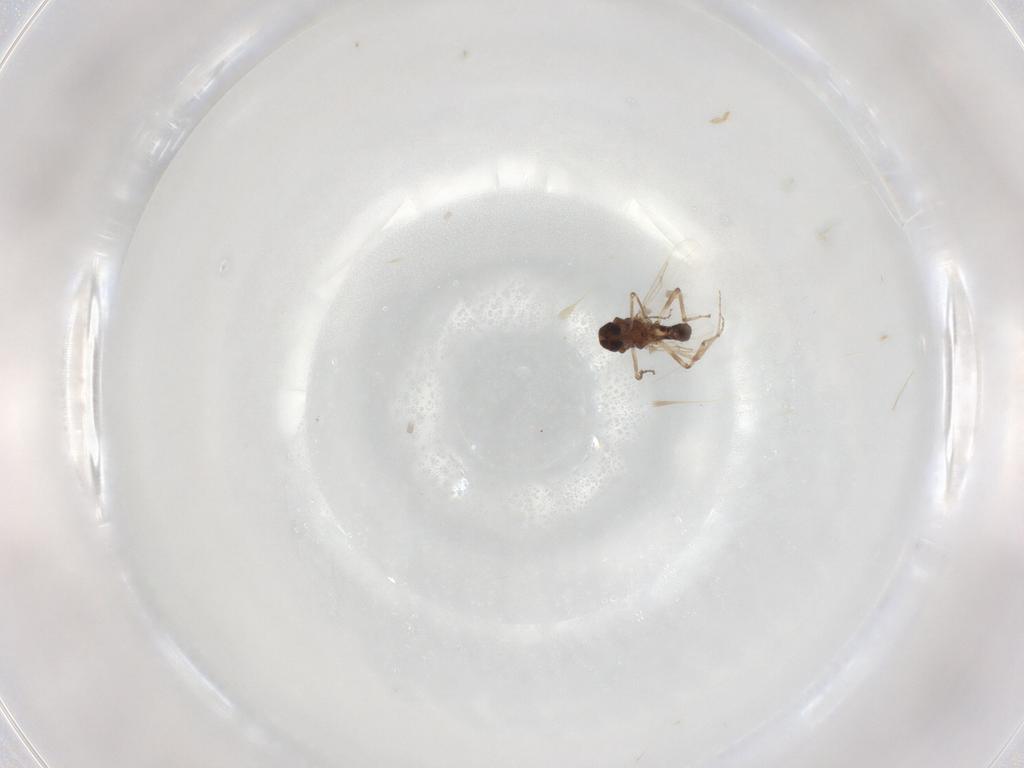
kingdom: Animalia
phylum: Arthropoda
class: Insecta
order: Diptera
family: Ceratopogonidae
